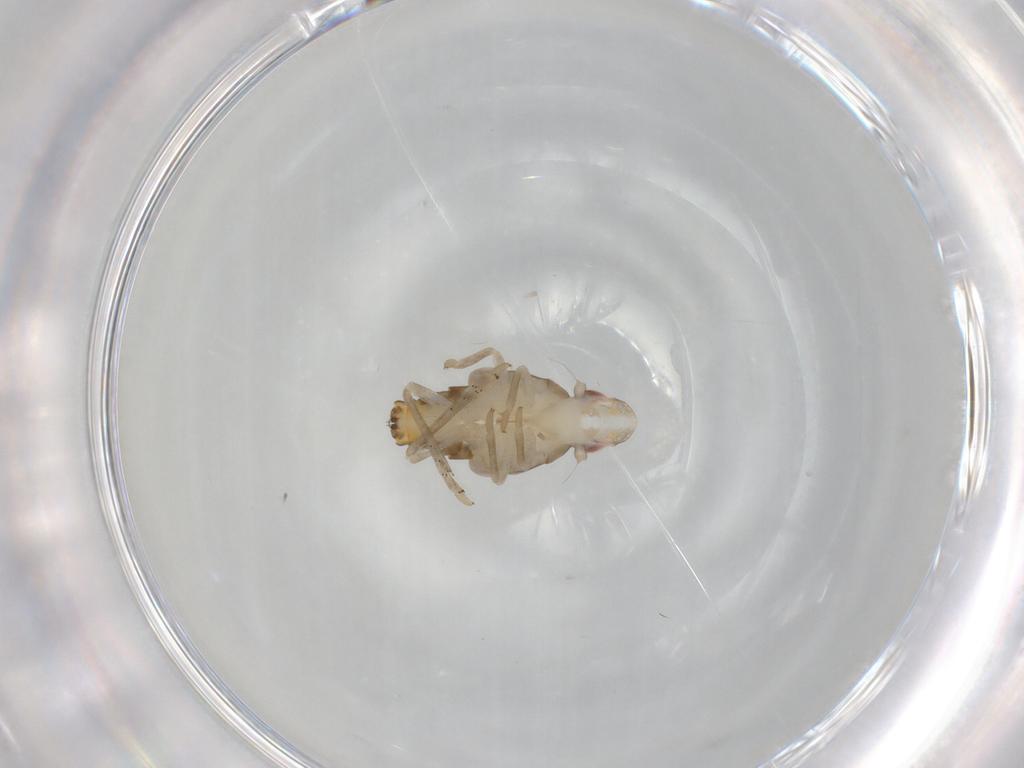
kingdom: Animalia
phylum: Arthropoda
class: Insecta
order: Hemiptera
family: Tropiduchidae
